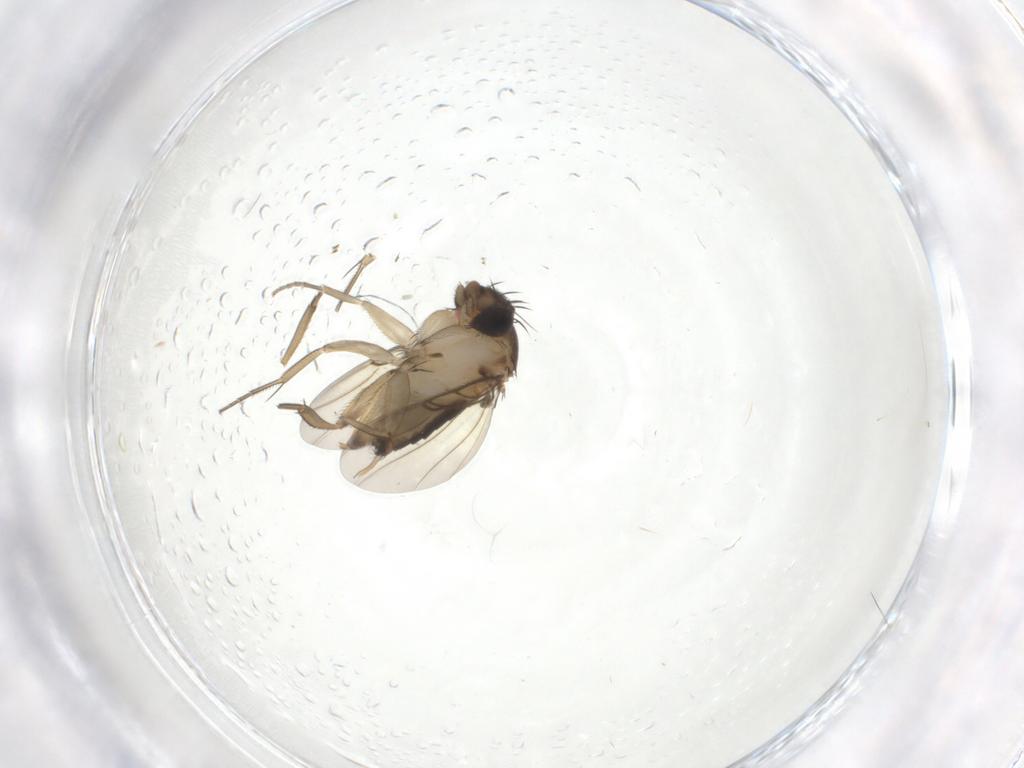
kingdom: Animalia
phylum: Arthropoda
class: Insecta
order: Diptera
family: Phoridae
